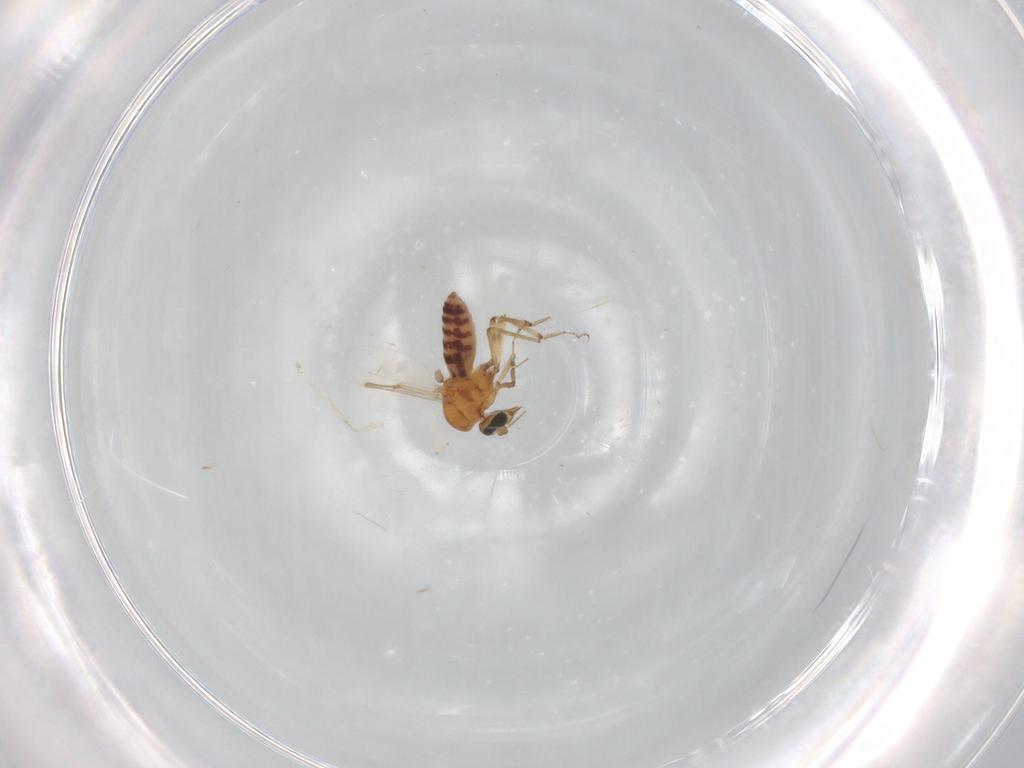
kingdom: Animalia
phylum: Arthropoda
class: Insecta
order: Diptera
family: Ceratopogonidae
